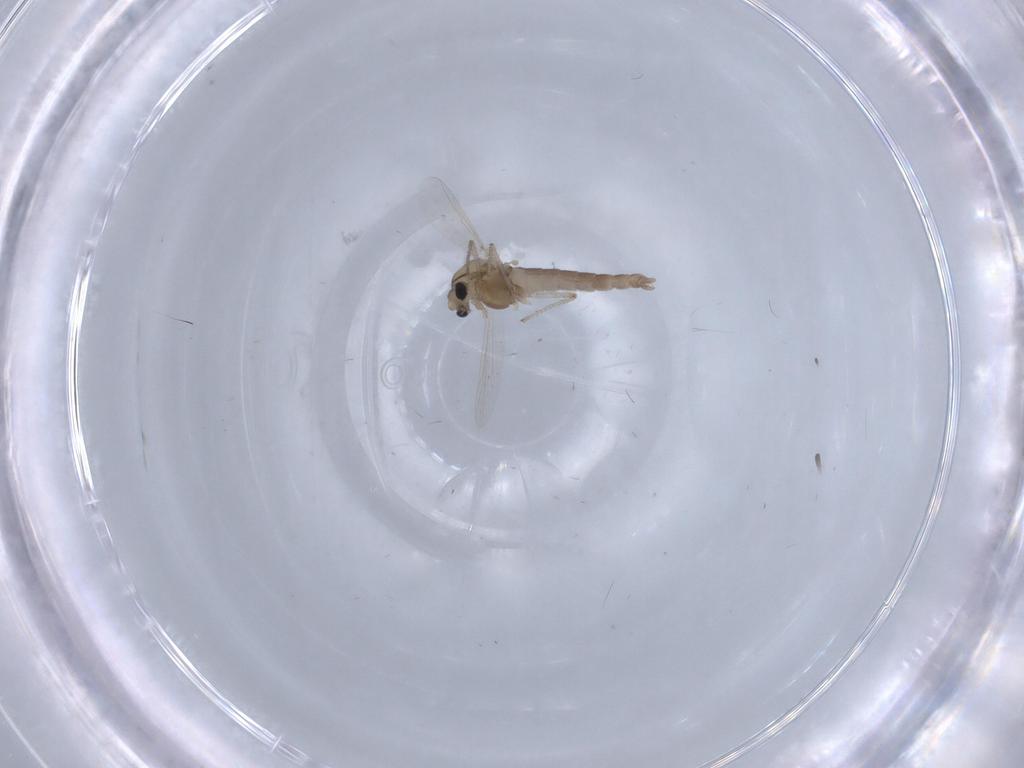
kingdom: Animalia
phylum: Arthropoda
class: Insecta
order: Diptera
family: Chironomidae
